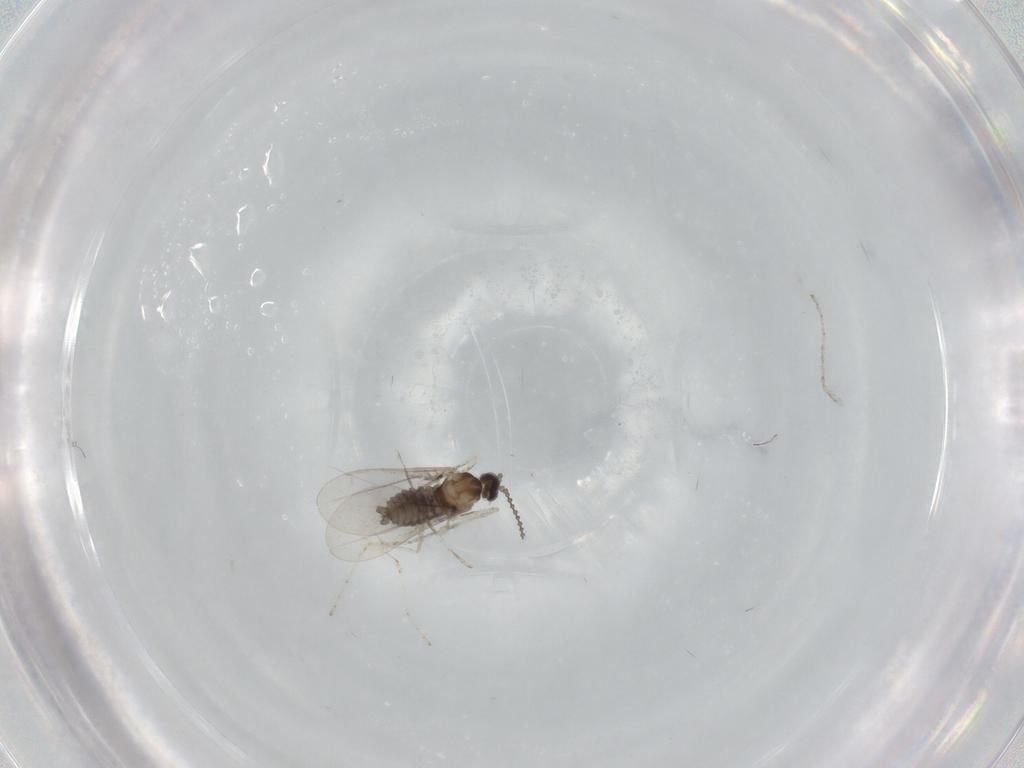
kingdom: Animalia
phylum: Arthropoda
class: Insecta
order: Diptera
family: Cecidomyiidae
